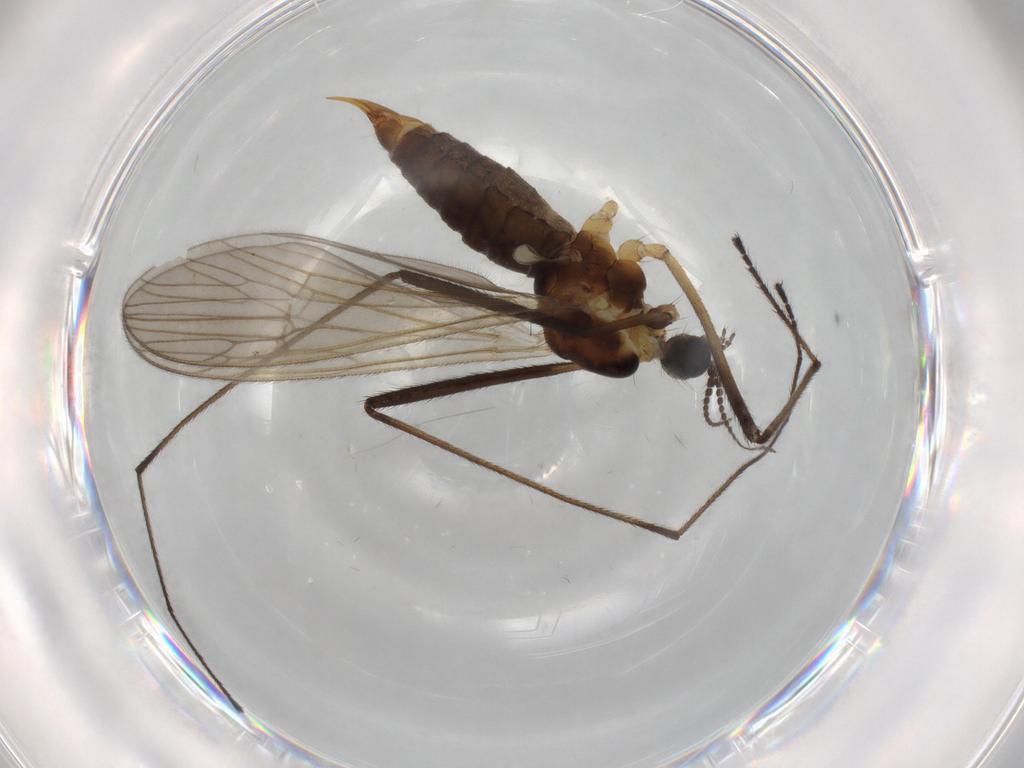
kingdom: Animalia
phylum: Arthropoda
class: Insecta
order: Diptera
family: Agromyzidae
